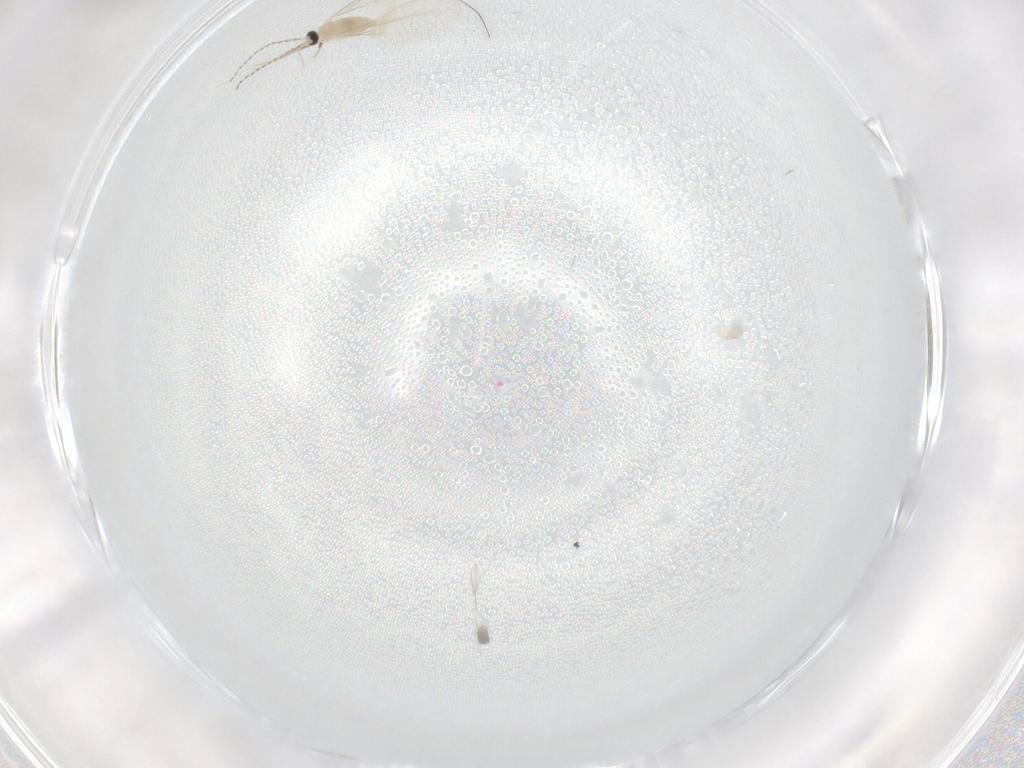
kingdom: Animalia
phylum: Arthropoda
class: Insecta
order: Diptera
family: Cecidomyiidae
